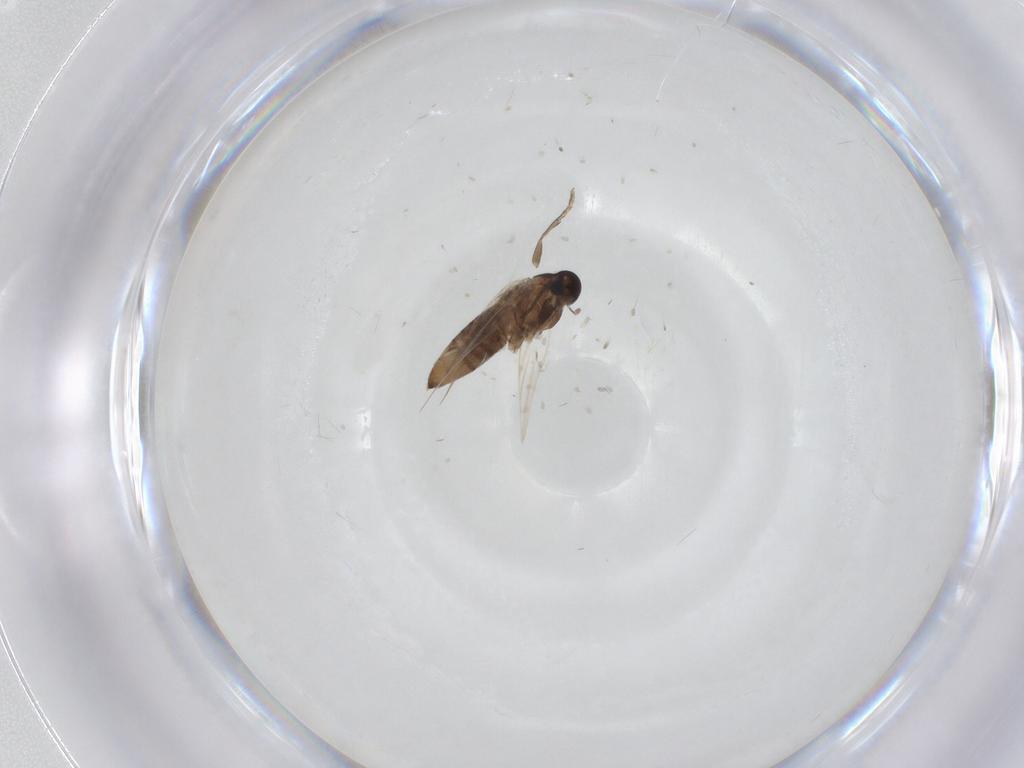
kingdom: Animalia
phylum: Arthropoda
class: Insecta
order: Diptera
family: Stratiomyidae
